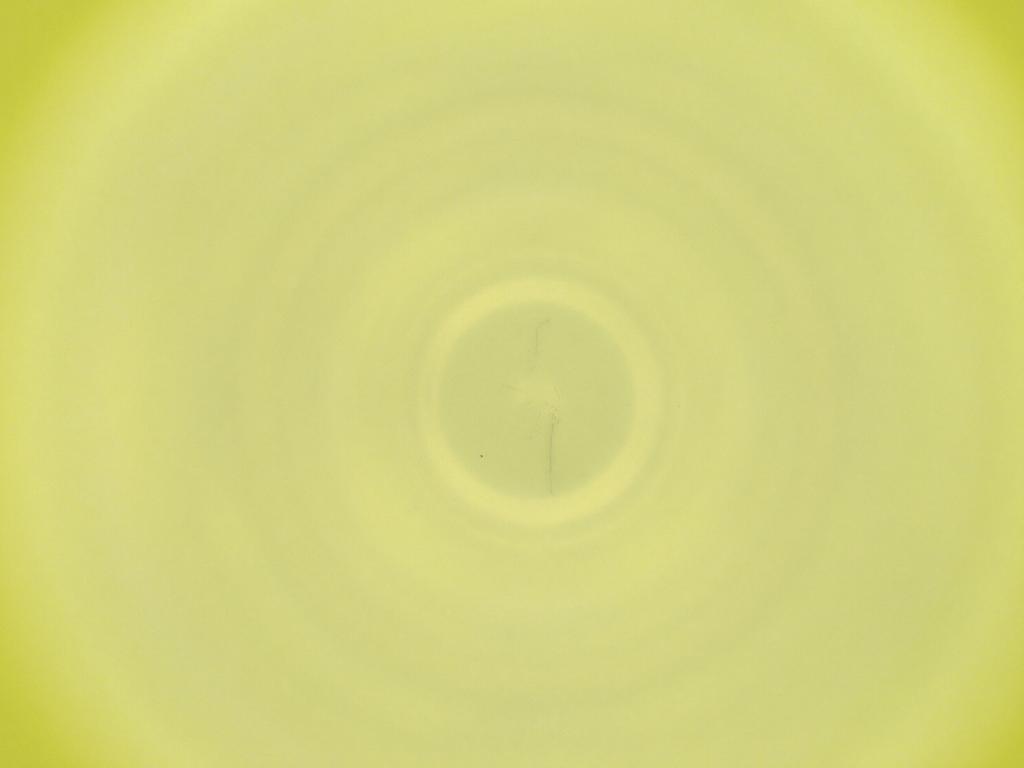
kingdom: Animalia
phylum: Arthropoda
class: Insecta
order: Diptera
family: Cecidomyiidae
